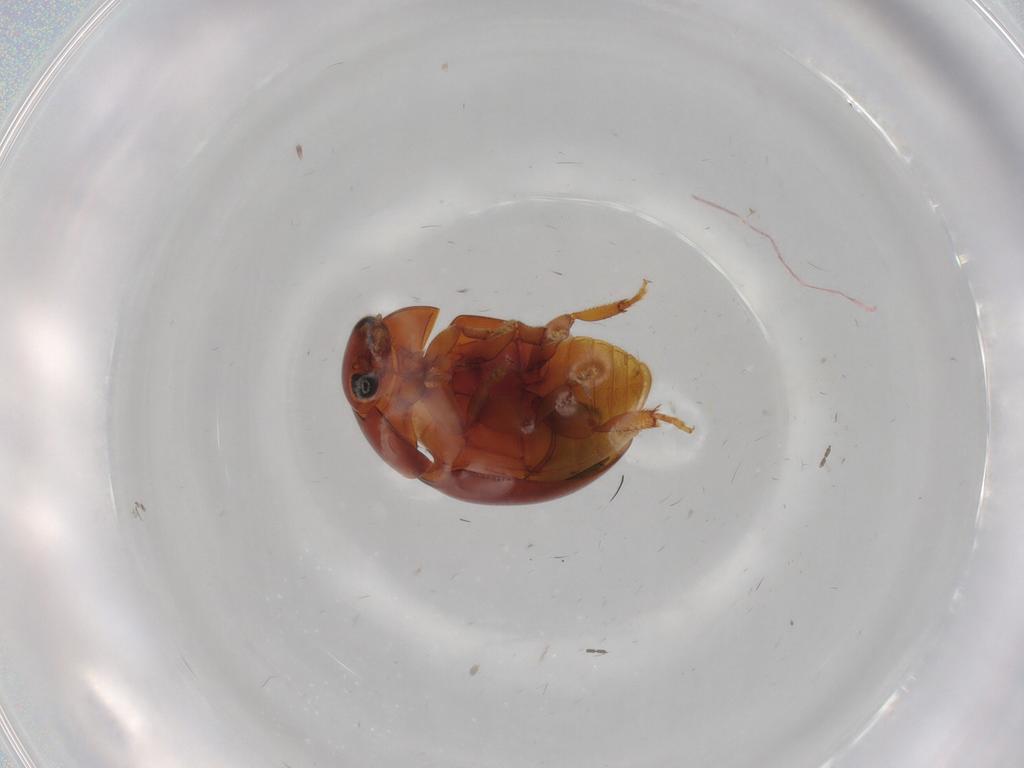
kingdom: Animalia
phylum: Arthropoda
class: Insecta
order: Coleoptera
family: Phalacridae
